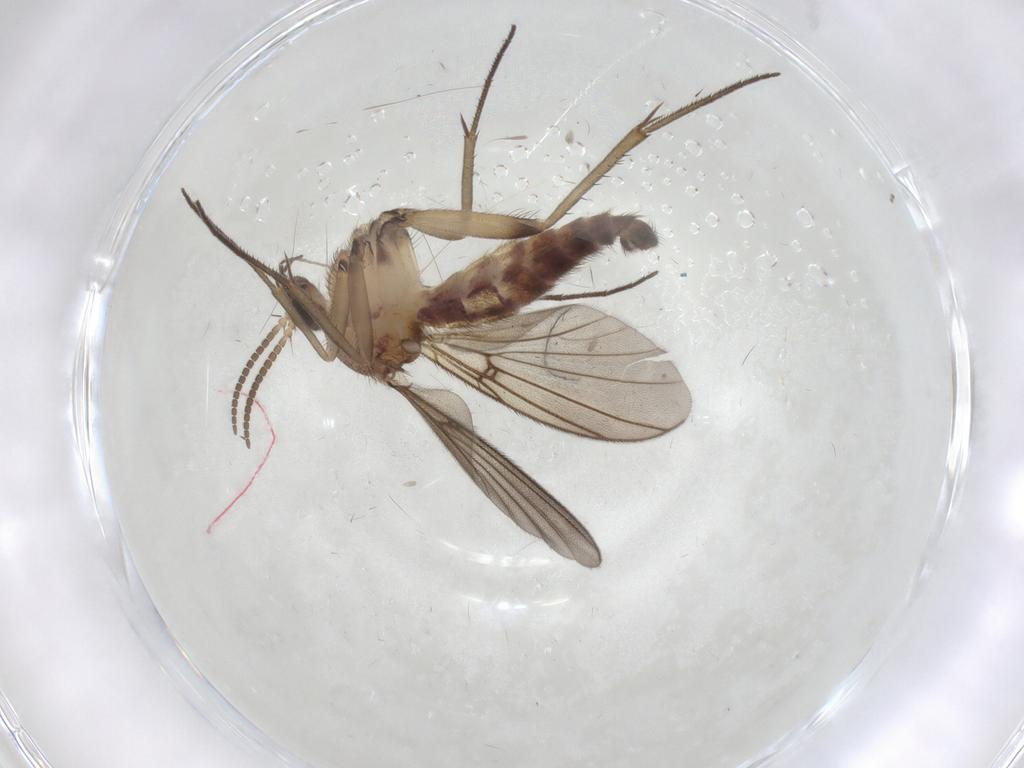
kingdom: Animalia
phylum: Arthropoda
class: Insecta
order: Diptera
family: Mycetophilidae
